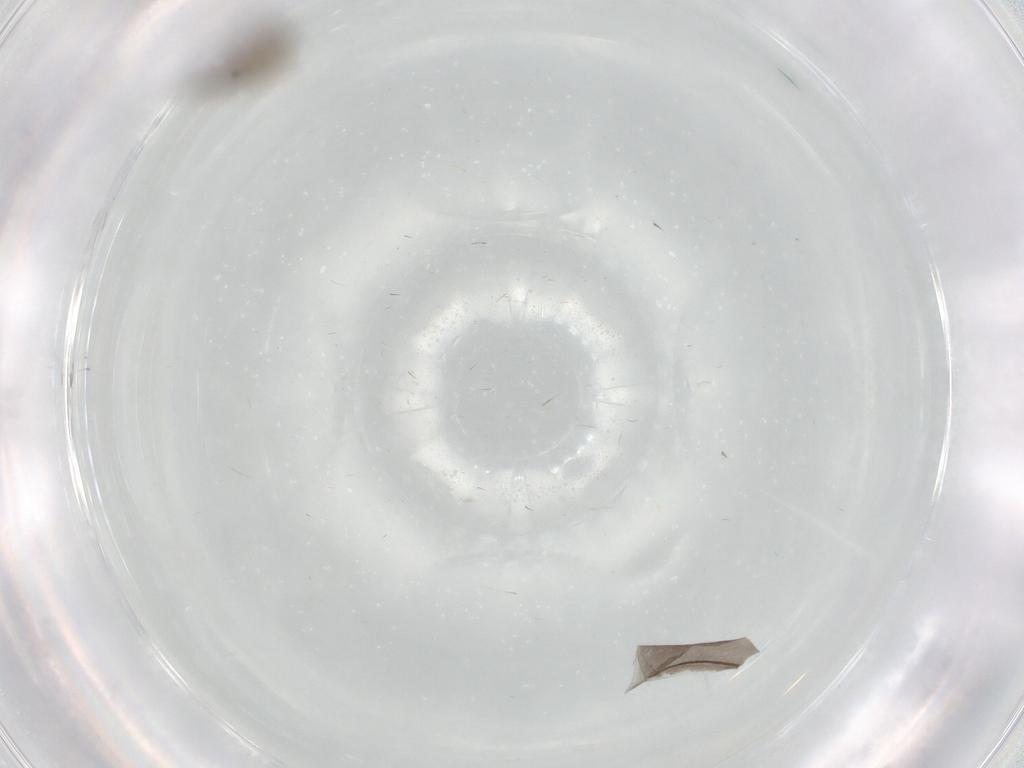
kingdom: Animalia
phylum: Arthropoda
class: Insecta
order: Diptera
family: Chironomidae
